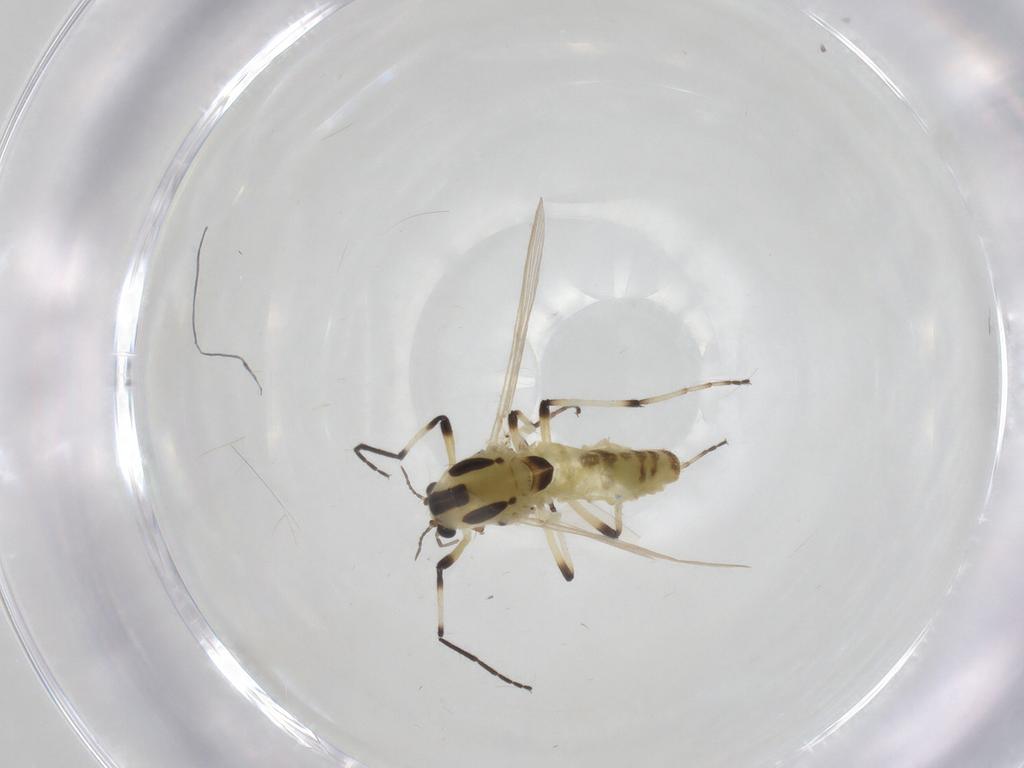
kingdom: Animalia
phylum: Arthropoda
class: Insecta
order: Diptera
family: Chironomidae
